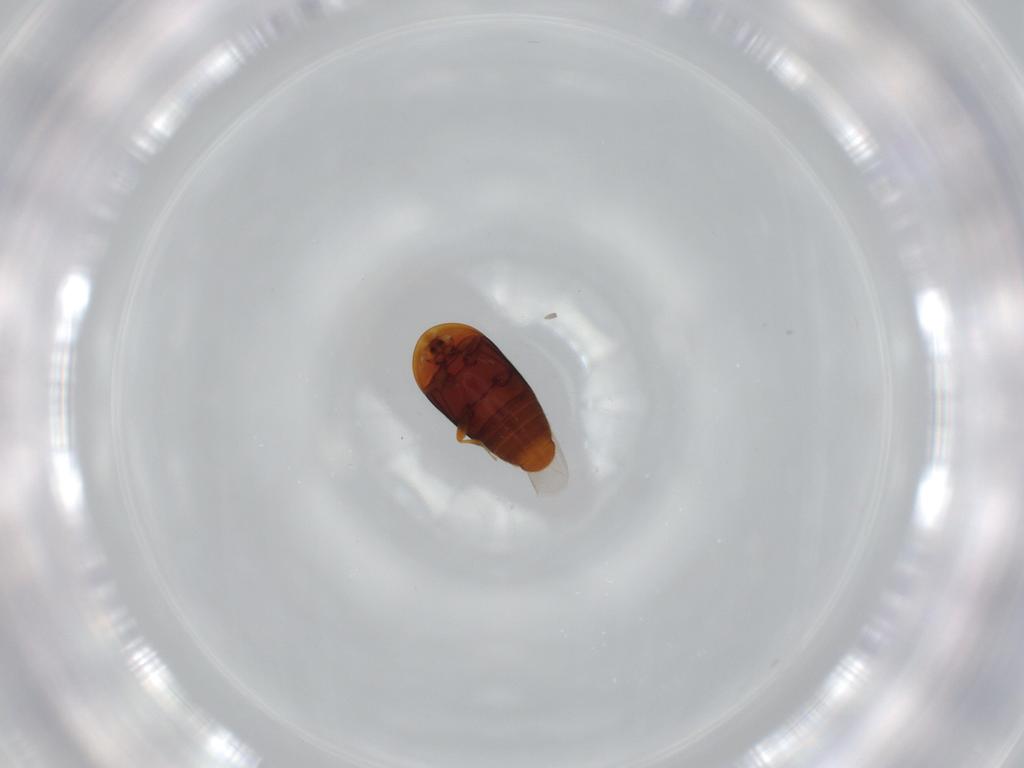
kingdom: Animalia
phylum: Arthropoda
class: Insecta
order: Coleoptera
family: Corylophidae
